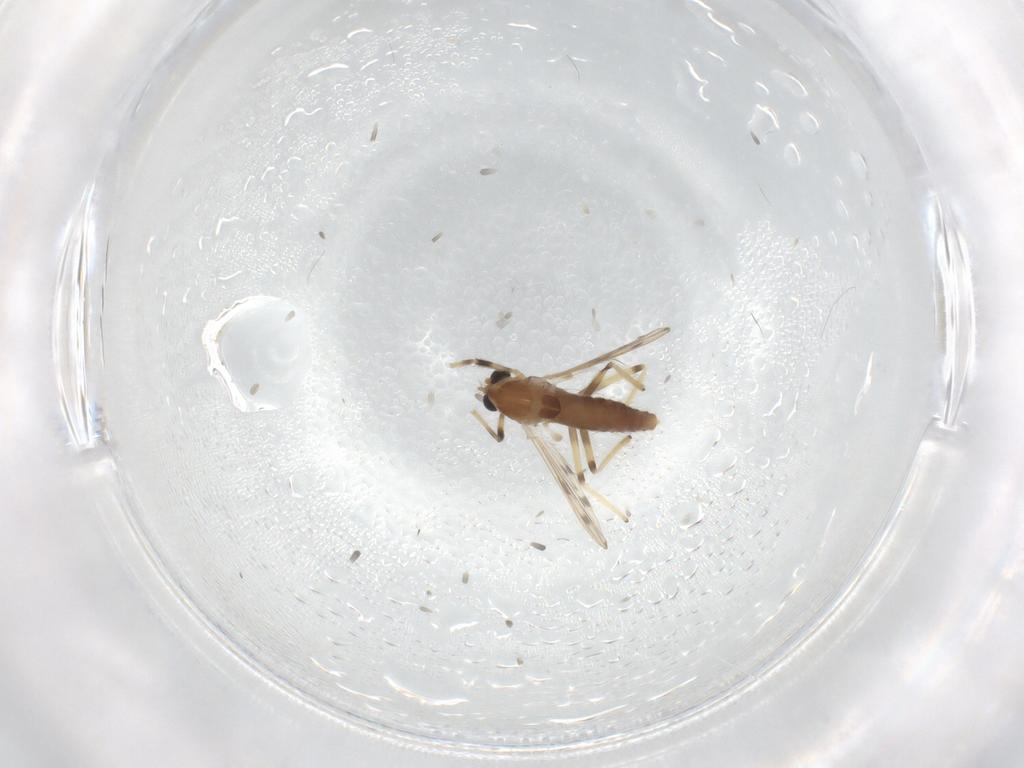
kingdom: Animalia
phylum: Arthropoda
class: Insecta
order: Diptera
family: Chironomidae
